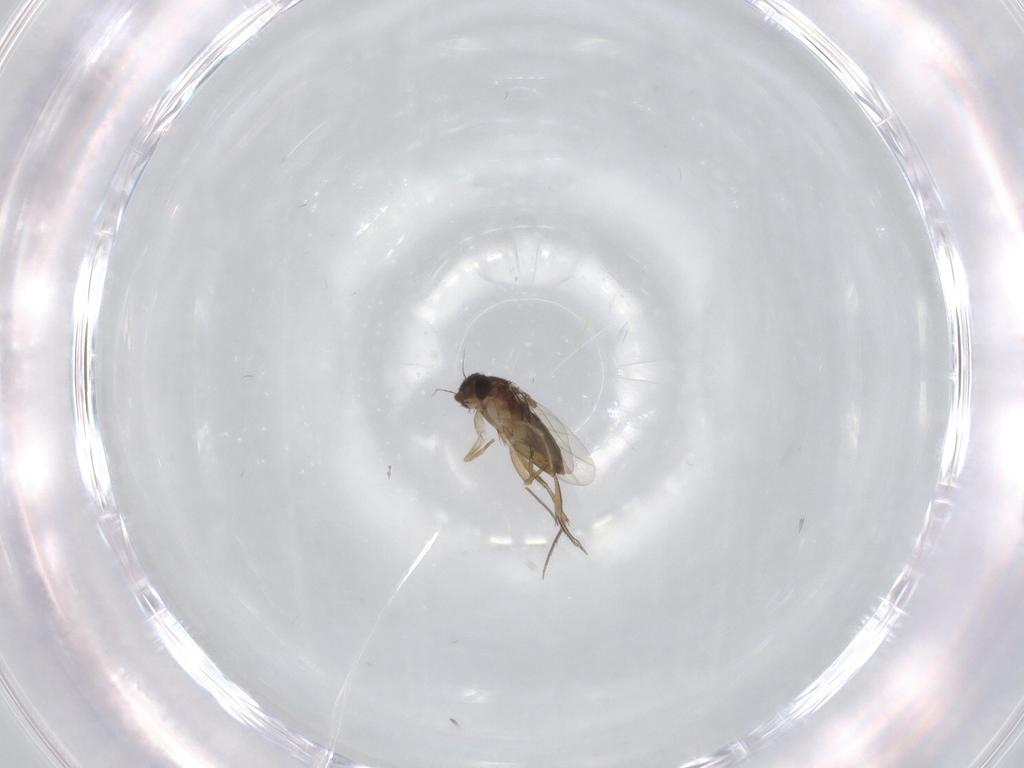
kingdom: Animalia
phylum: Arthropoda
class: Insecta
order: Diptera
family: Phoridae
